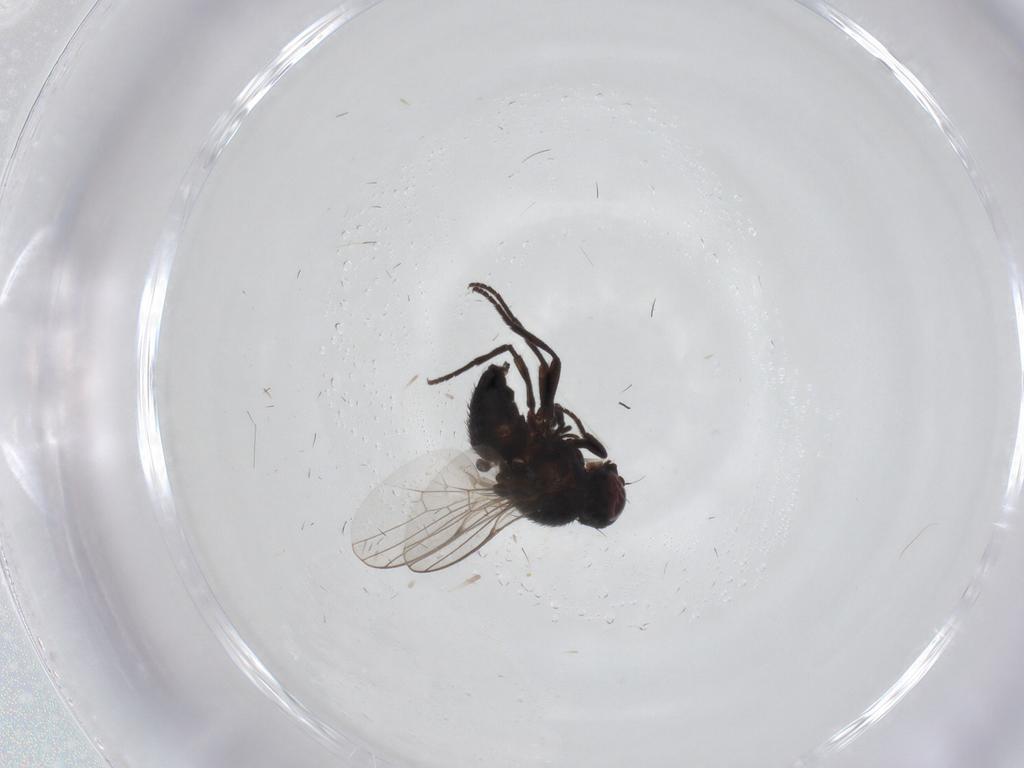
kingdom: Animalia
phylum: Arthropoda
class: Insecta
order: Diptera
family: Agromyzidae
